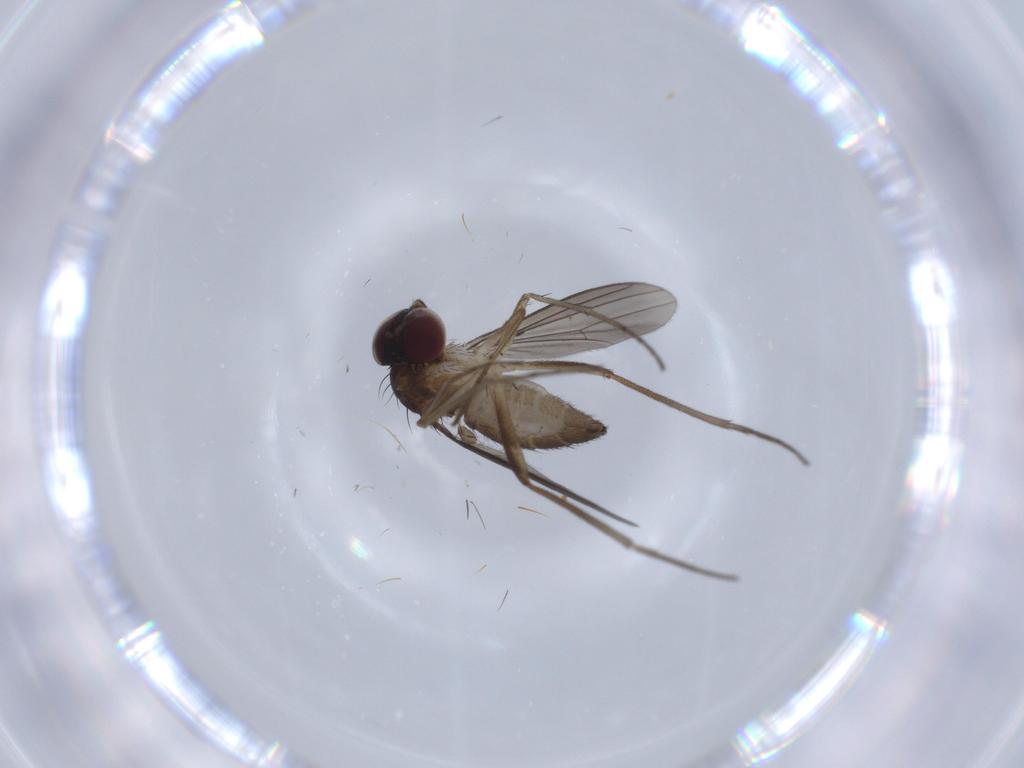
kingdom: Animalia
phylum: Arthropoda
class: Insecta
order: Diptera
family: Dolichopodidae
